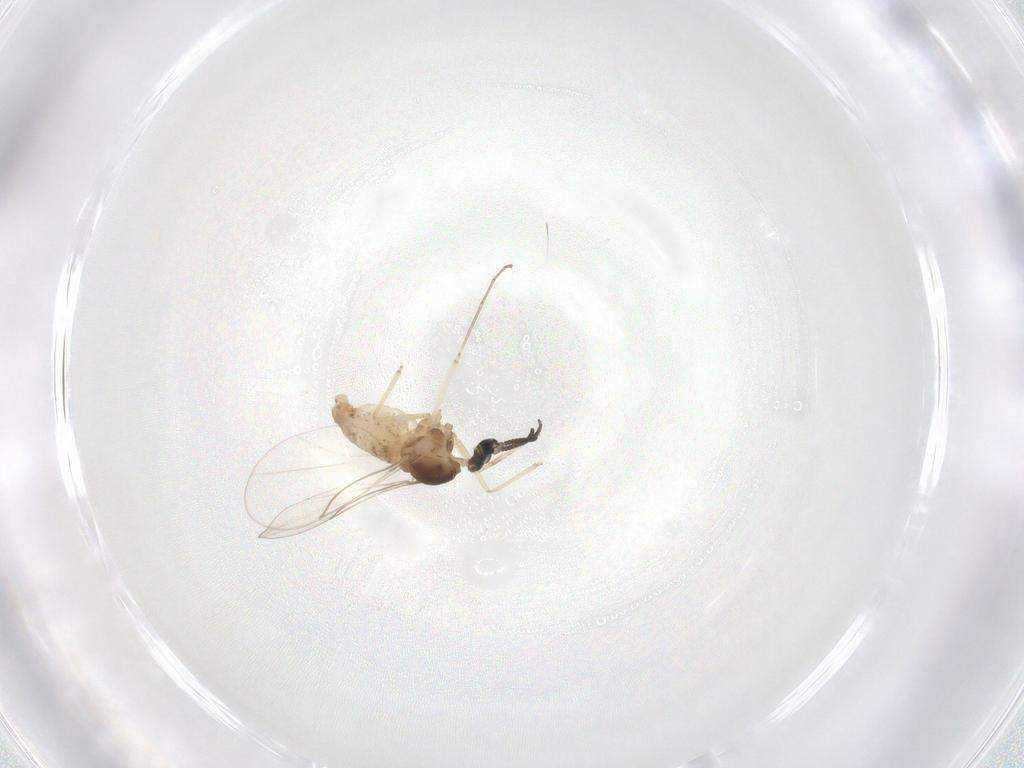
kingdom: Animalia
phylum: Arthropoda
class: Insecta
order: Diptera
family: Cecidomyiidae
